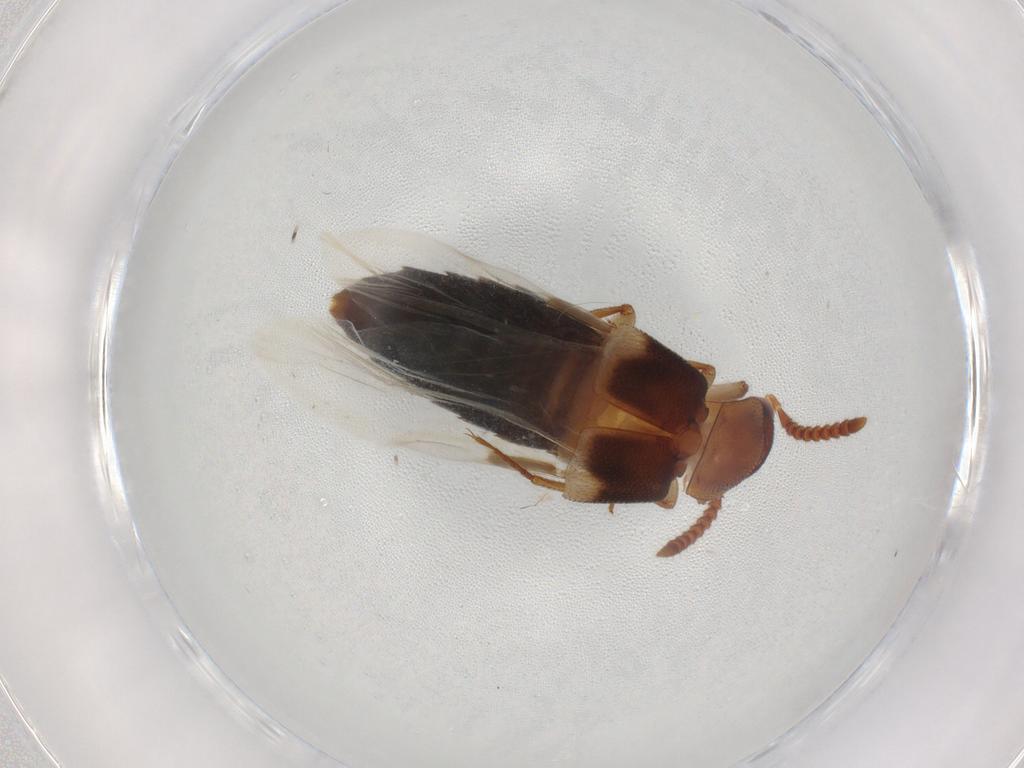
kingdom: Animalia
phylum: Arthropoda
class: Insecta
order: Coleoptera
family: Staphylinidae
